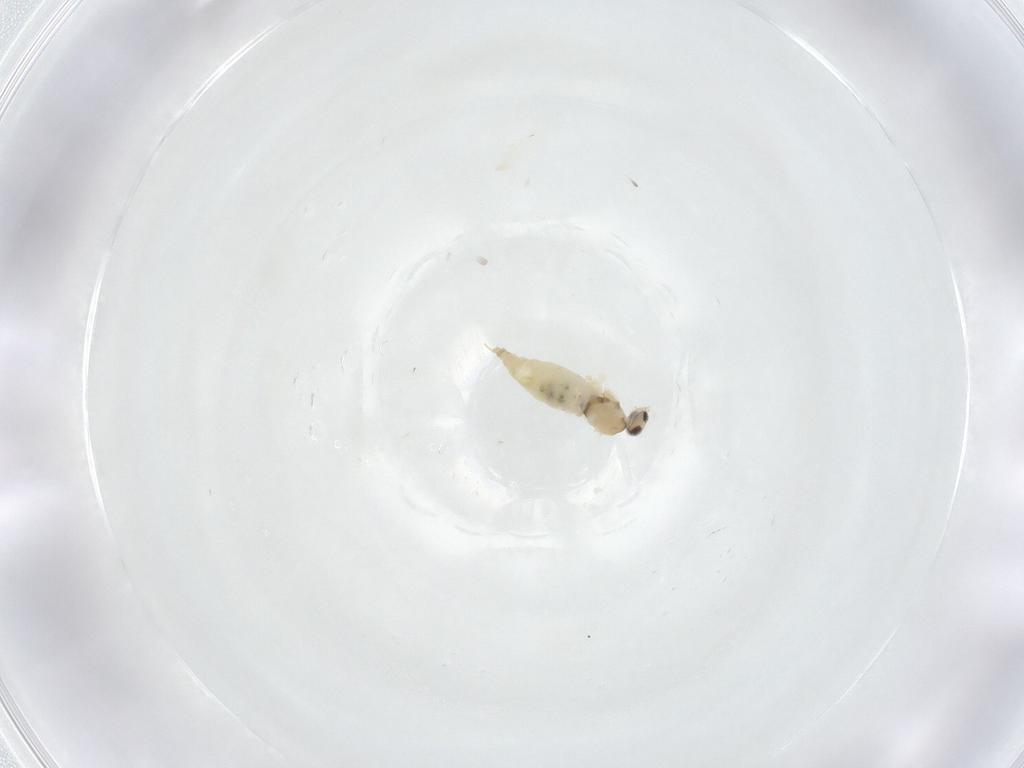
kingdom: Animalia
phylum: Arthropoda
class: Insecta
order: Diptera
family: Cecidomyiidae
